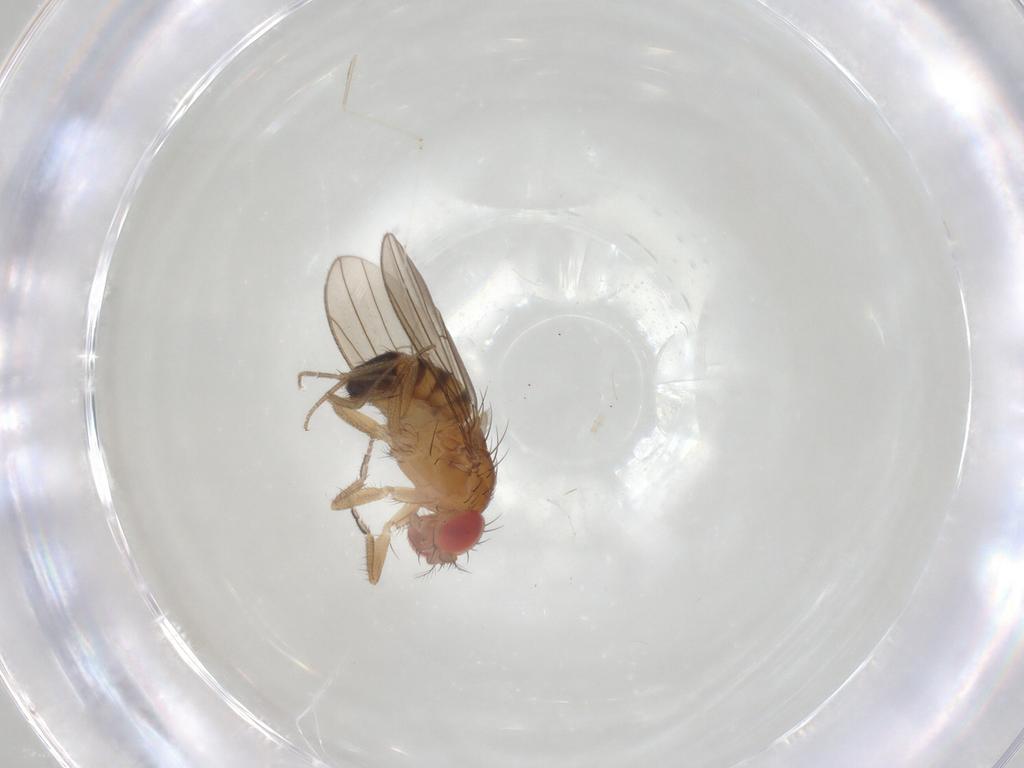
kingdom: Animalia
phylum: Arthropoda
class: Insecta
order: Diptera
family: Drosophilidae
